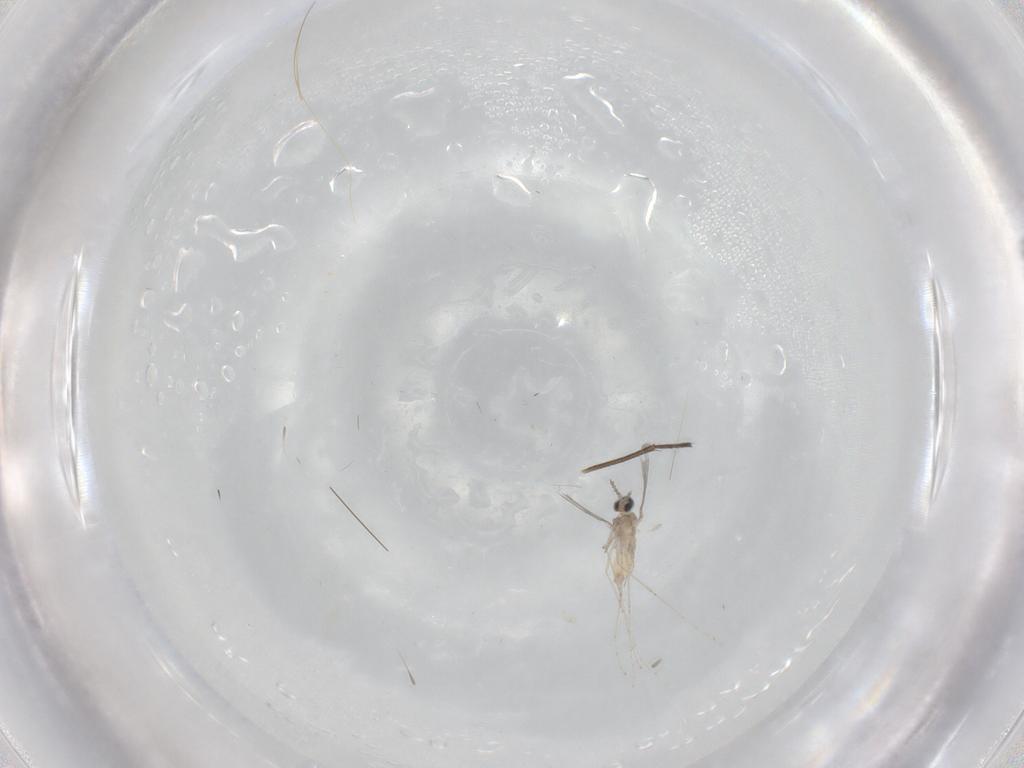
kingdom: Animalia
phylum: Arthropoda
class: Insecta
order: Diptera
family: Sciaridae
